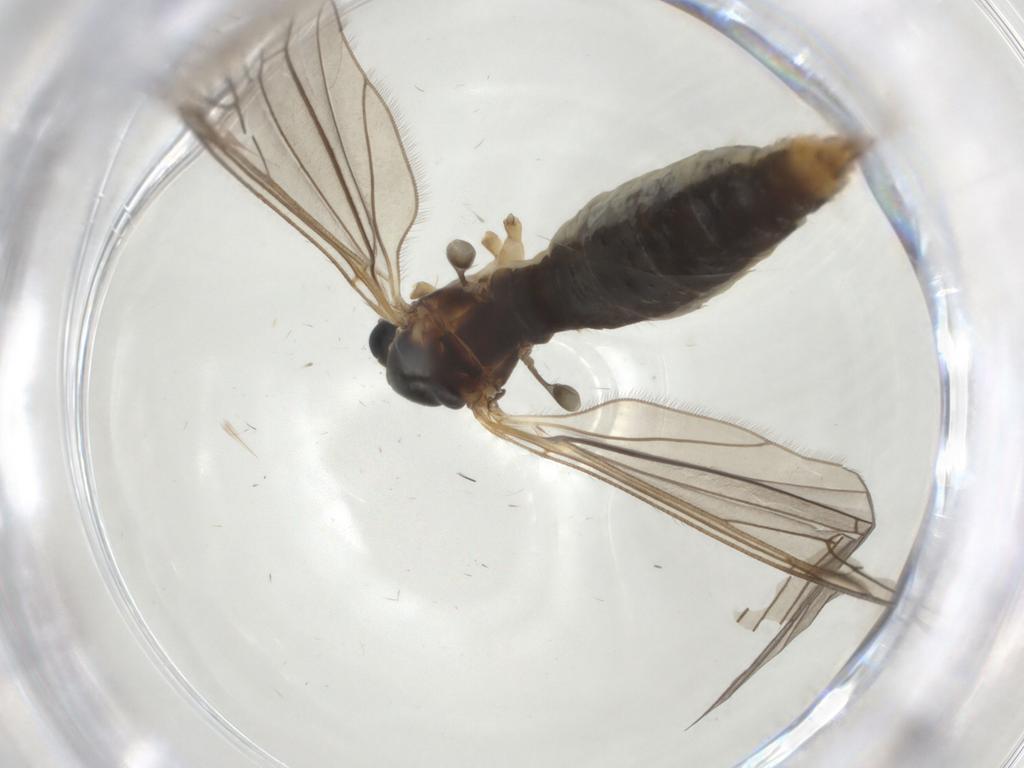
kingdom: Animalia
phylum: Arthropoda
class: Insecta
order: Diptera
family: Limoniidae
